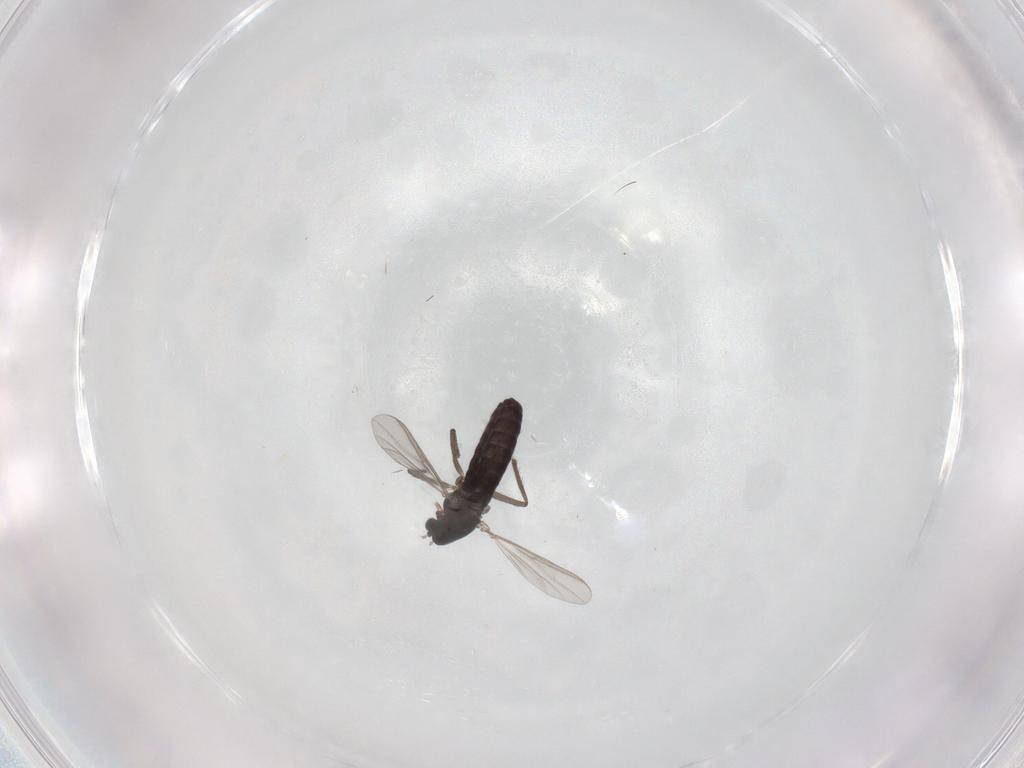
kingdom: Animalia
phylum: Arthropoda
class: Insecta
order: Diptera
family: Chironomidae
